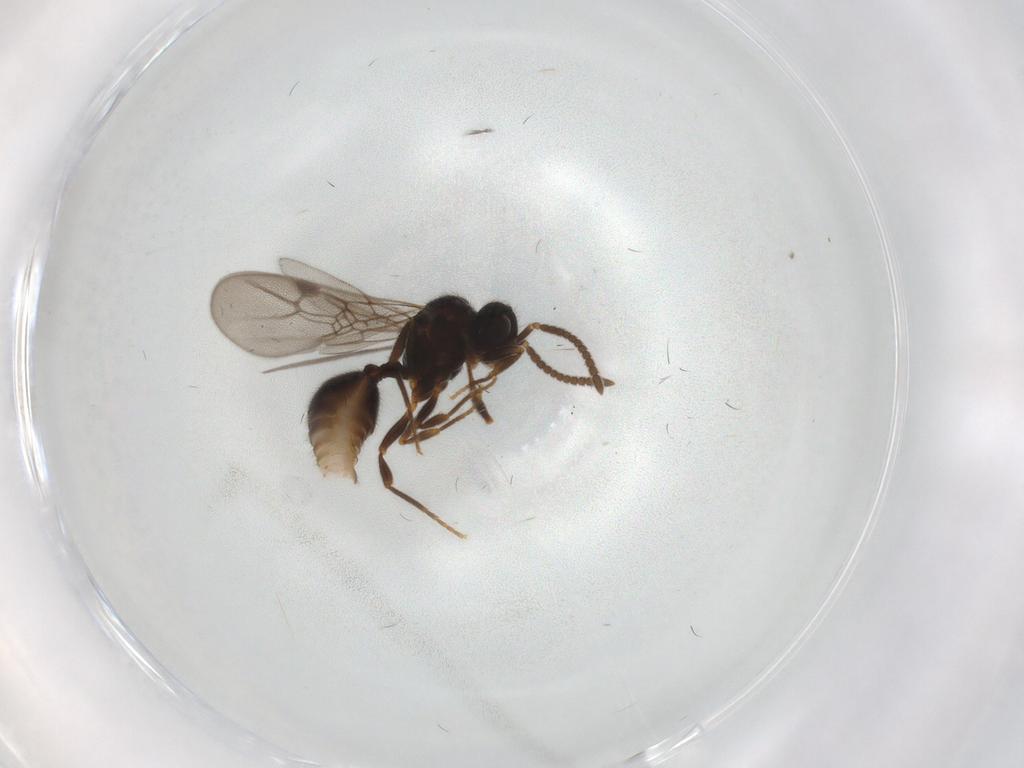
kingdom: Animalia
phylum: Arthropoda
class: Insecta
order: Hymenoptera
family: Formicidae
